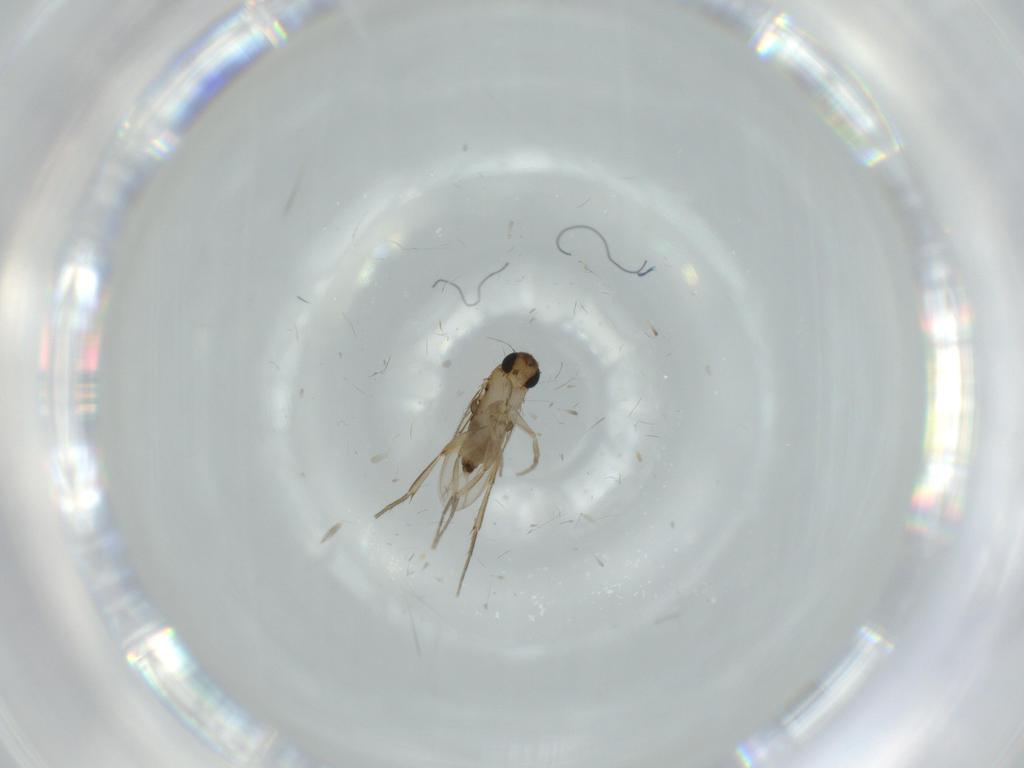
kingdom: Animalia
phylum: Arthropoda
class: Insecta
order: Diptera
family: Phoridae
